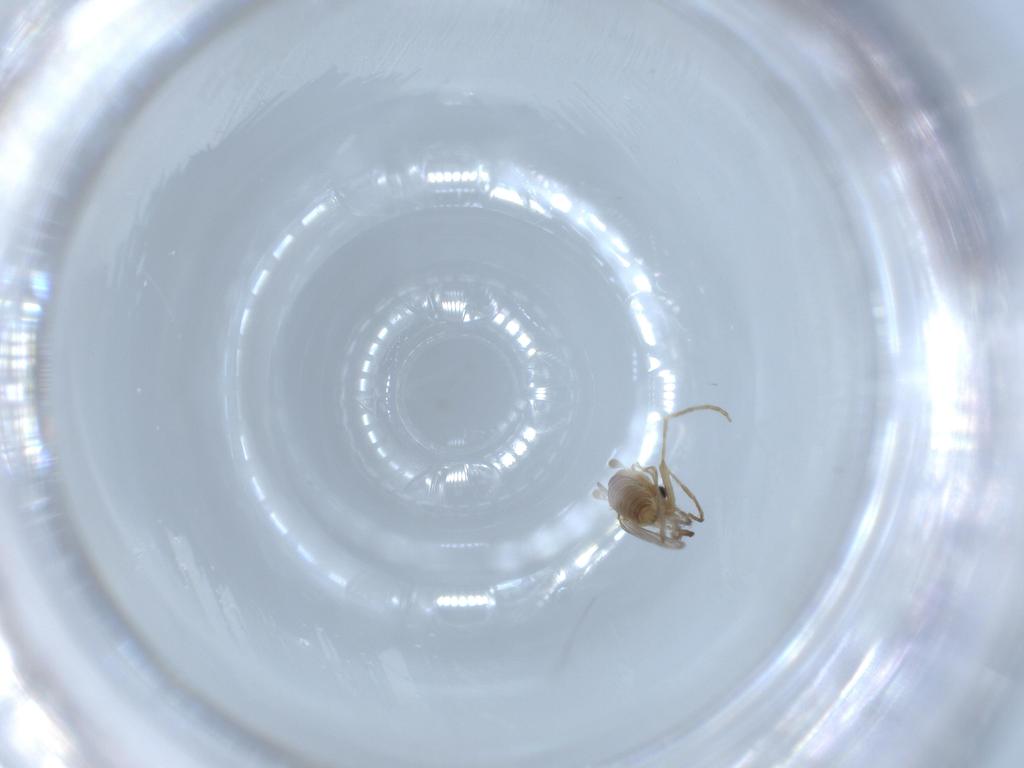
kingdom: Animalia
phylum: Arthropoda
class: Insecta
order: Diptera
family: Psychodidae
